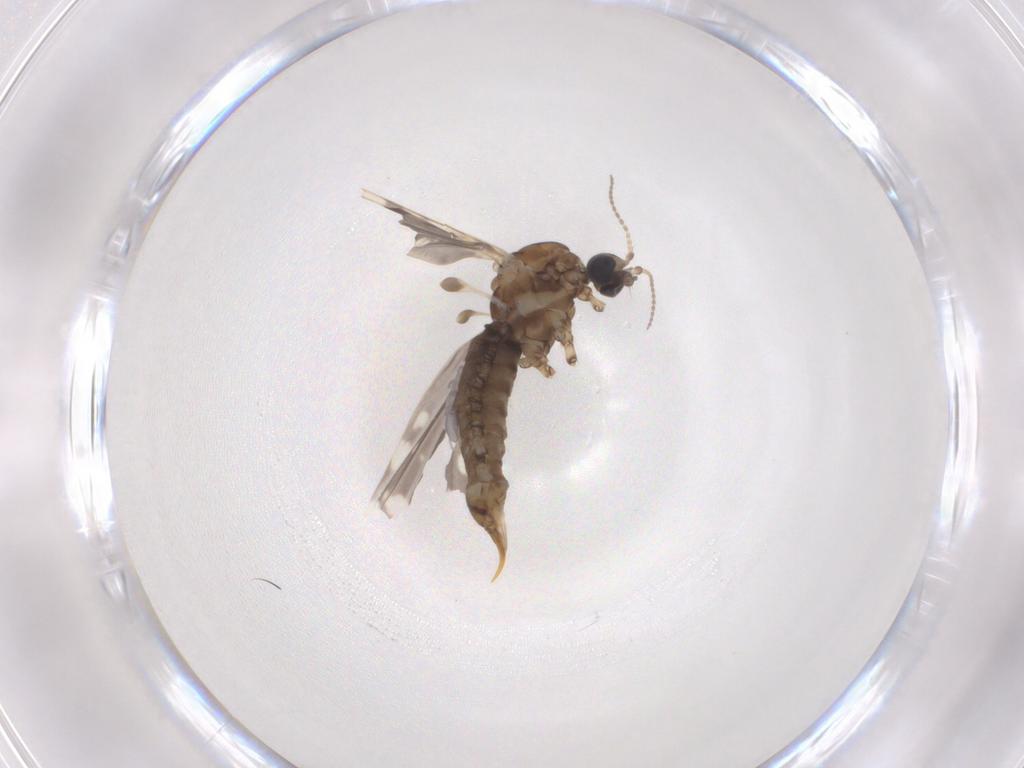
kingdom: Animalia
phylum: Arthropoda
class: Insecta
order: Diptera
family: Limoniidae
